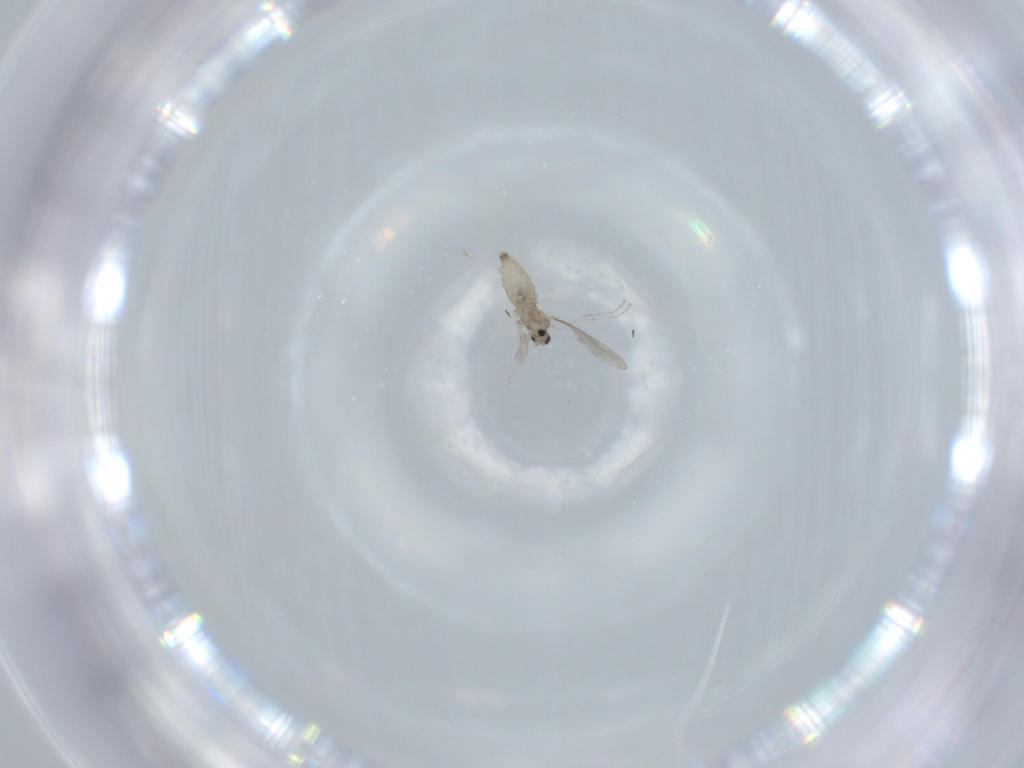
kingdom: Animalia
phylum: Arthropoda
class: Insecta
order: Diptera
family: Cecidomyiidae
